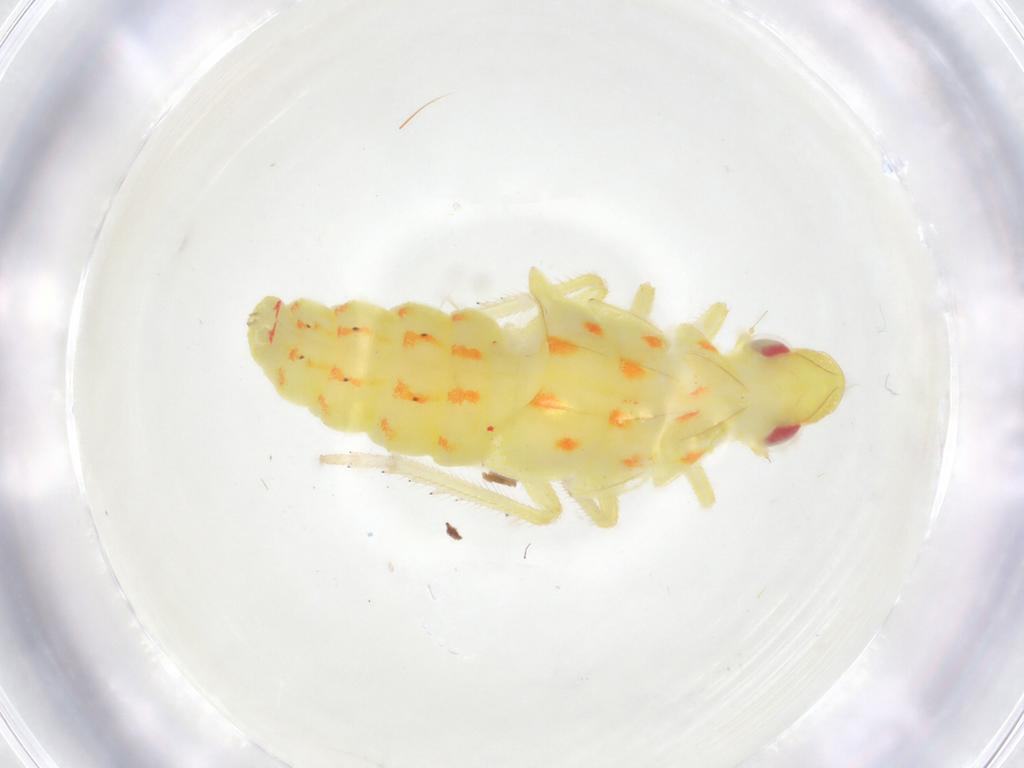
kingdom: Animalia
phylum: Arthropoda
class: Insecta
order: Hemiptera
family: Tropiduchidae
